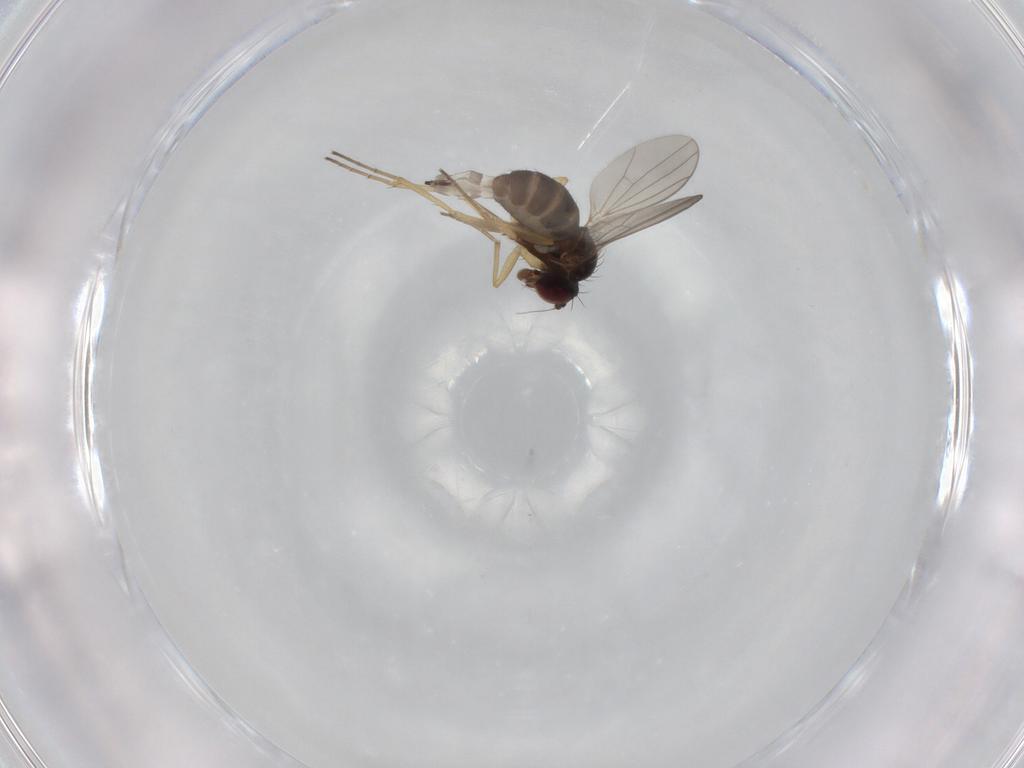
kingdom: Animalia
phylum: Arthropoda
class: Insecta
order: Diptera
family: Dolichopodidae
